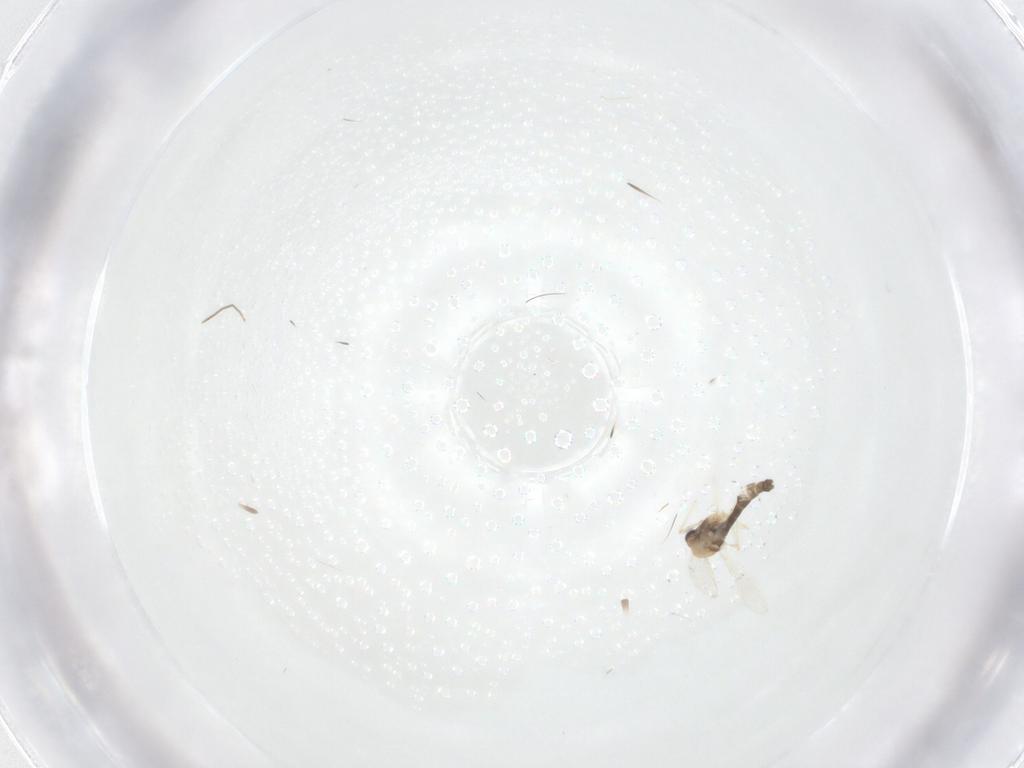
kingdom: Animalia
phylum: Arthropoda
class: Insecta
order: Diptera
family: Chironomidae
